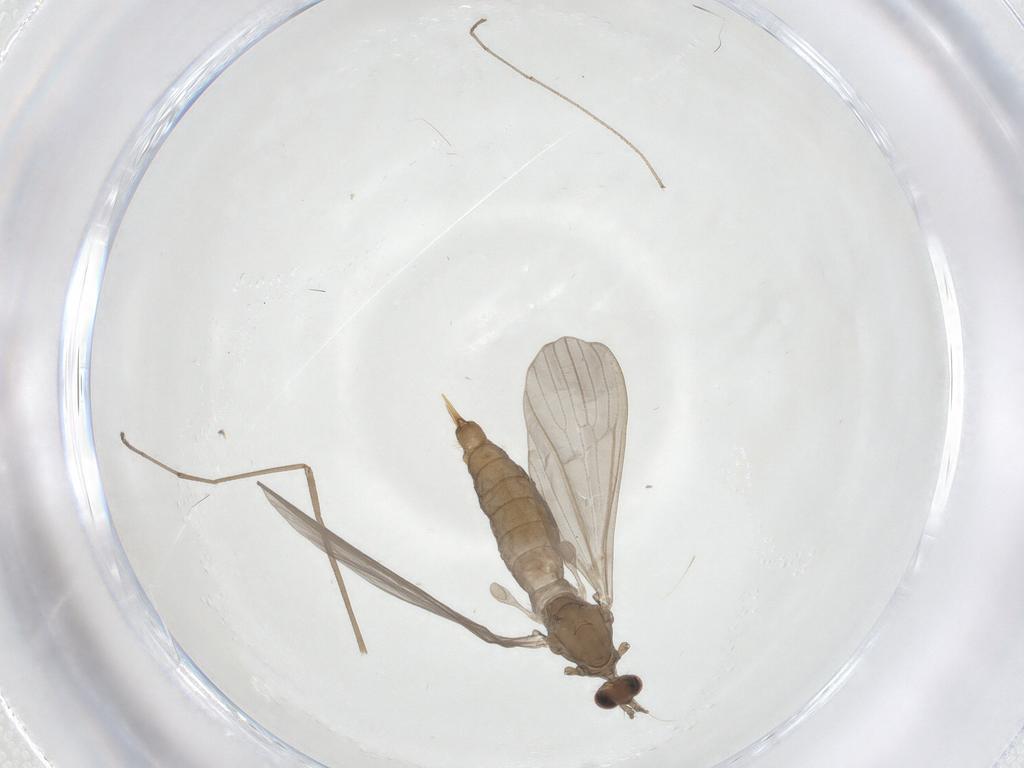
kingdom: Animalia
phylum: Arthropoda
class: Insecta
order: Diptera
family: Limoniidae
